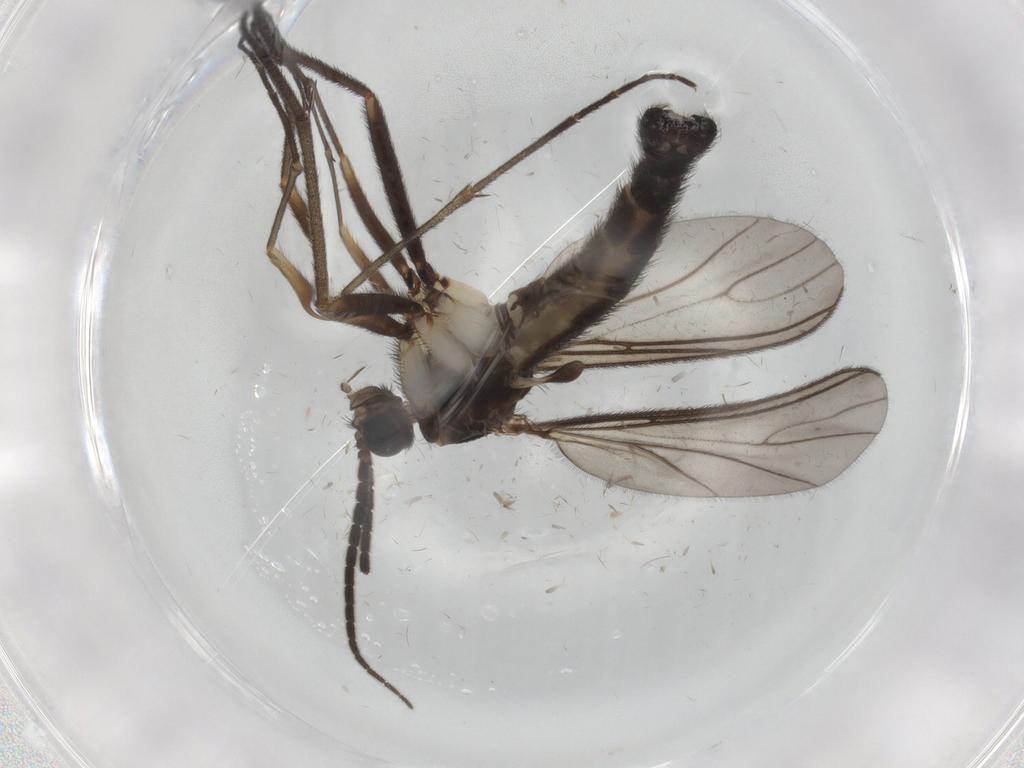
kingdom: Animalia
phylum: Arthropoda
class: Insecta
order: Diptera
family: Sciaridae
